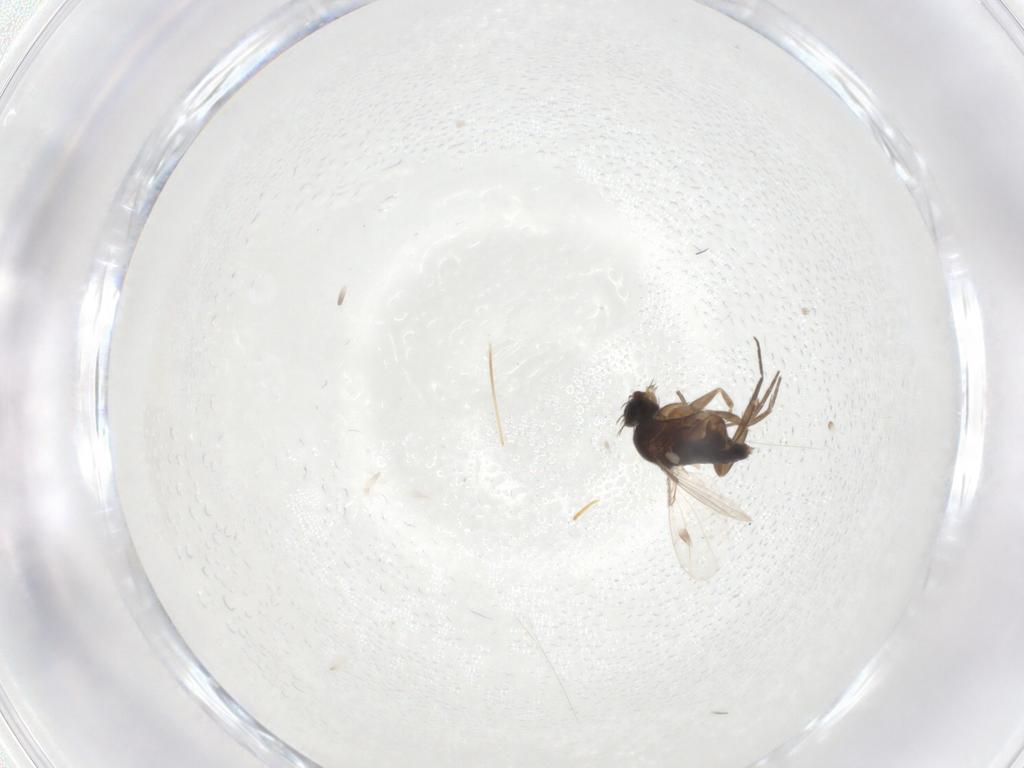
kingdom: Animalia
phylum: Arthropoda
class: Insecta
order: Diptera
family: Phoridae
